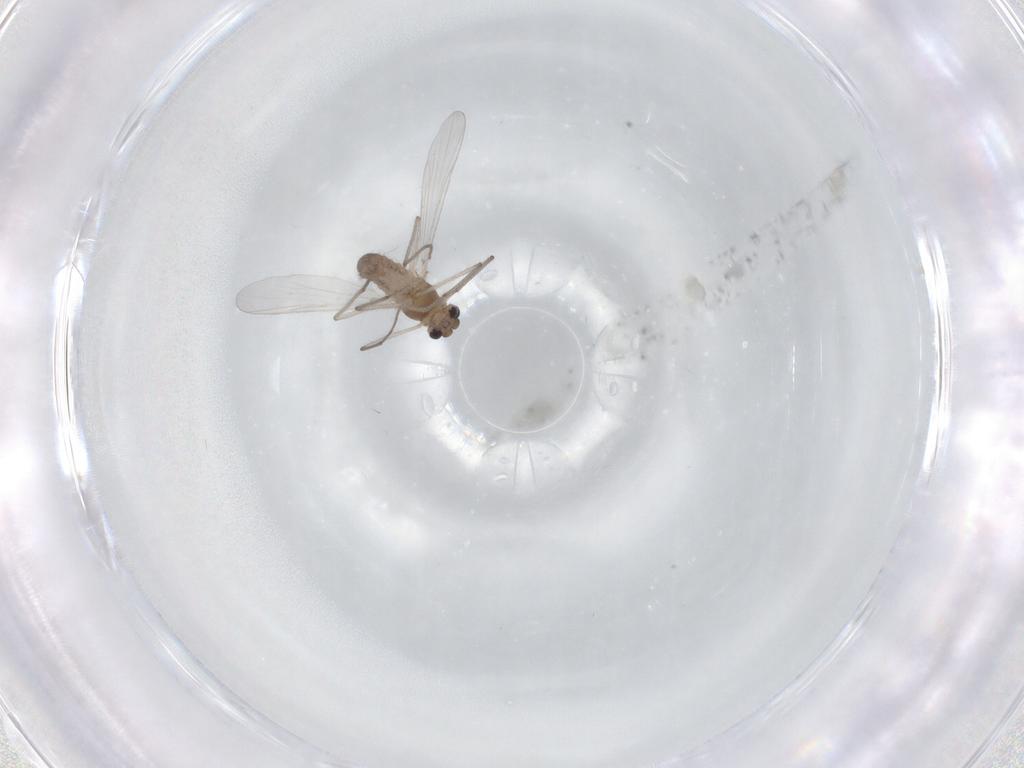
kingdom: Animalia
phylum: Arthropoda
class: Insecta
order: Diptera
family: Chironomidae
